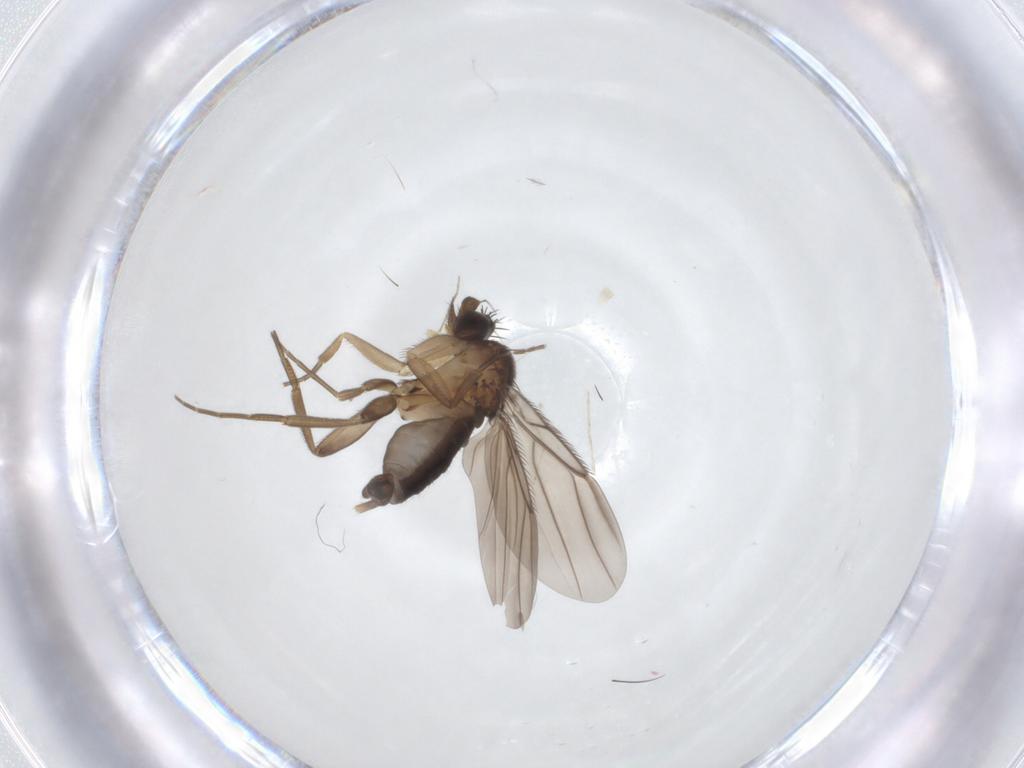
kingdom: Animalia
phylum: Arthropoda
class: Insecta
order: Diptera
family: Cecidomyiidae
